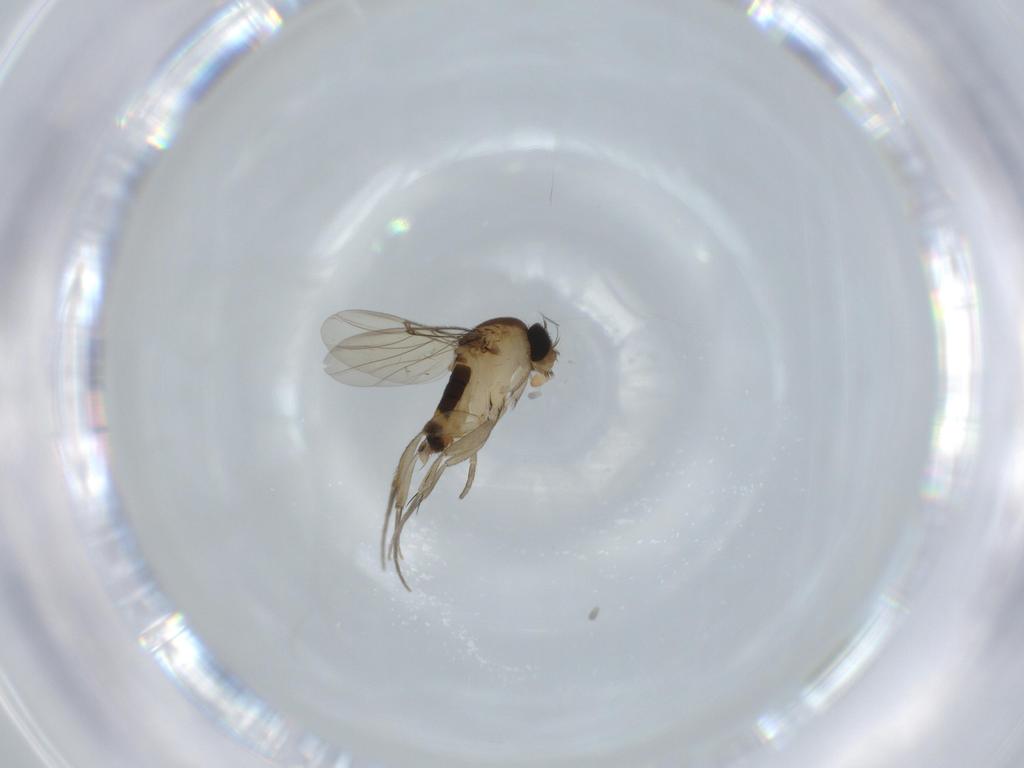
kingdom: Animalia
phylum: Arthropoda
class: Insecta
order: Diptera
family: Phoridae
